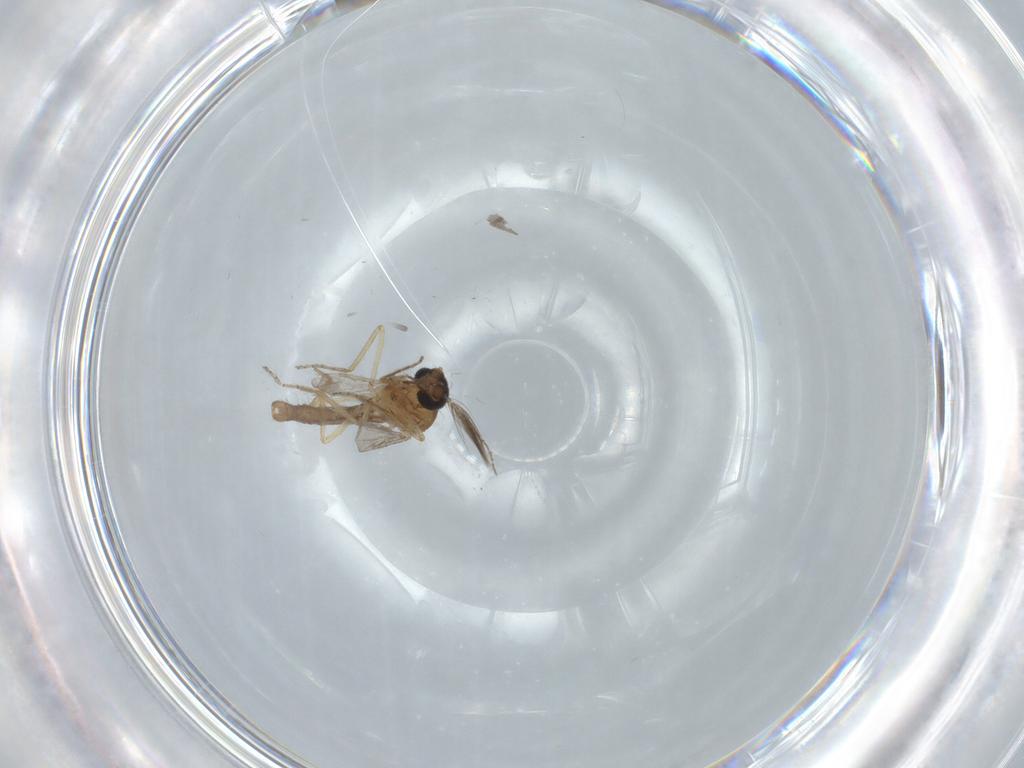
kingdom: Animalia
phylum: Arthropoda
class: Insecta
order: Diptera
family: Ceratopogonidae
